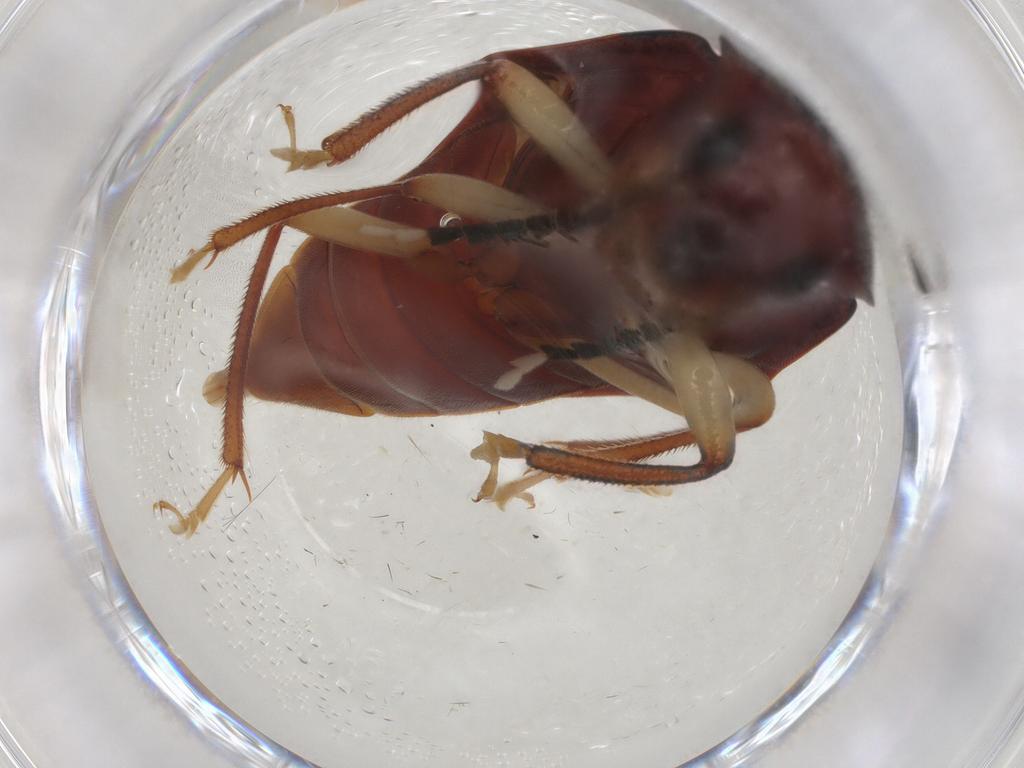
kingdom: Animalia
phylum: Arthropoda
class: Insecta
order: Coleoptera
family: Ptilodactylidae
